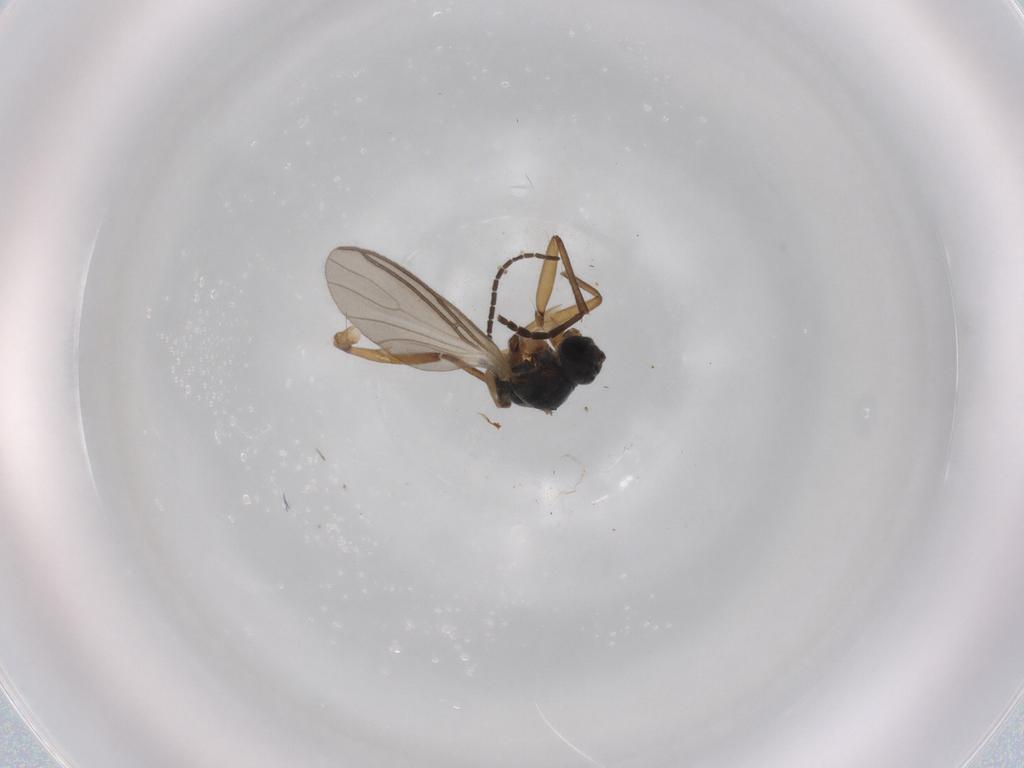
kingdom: Animalia
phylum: Arthropoda
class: Insecta
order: Diptera
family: Sciaridae
